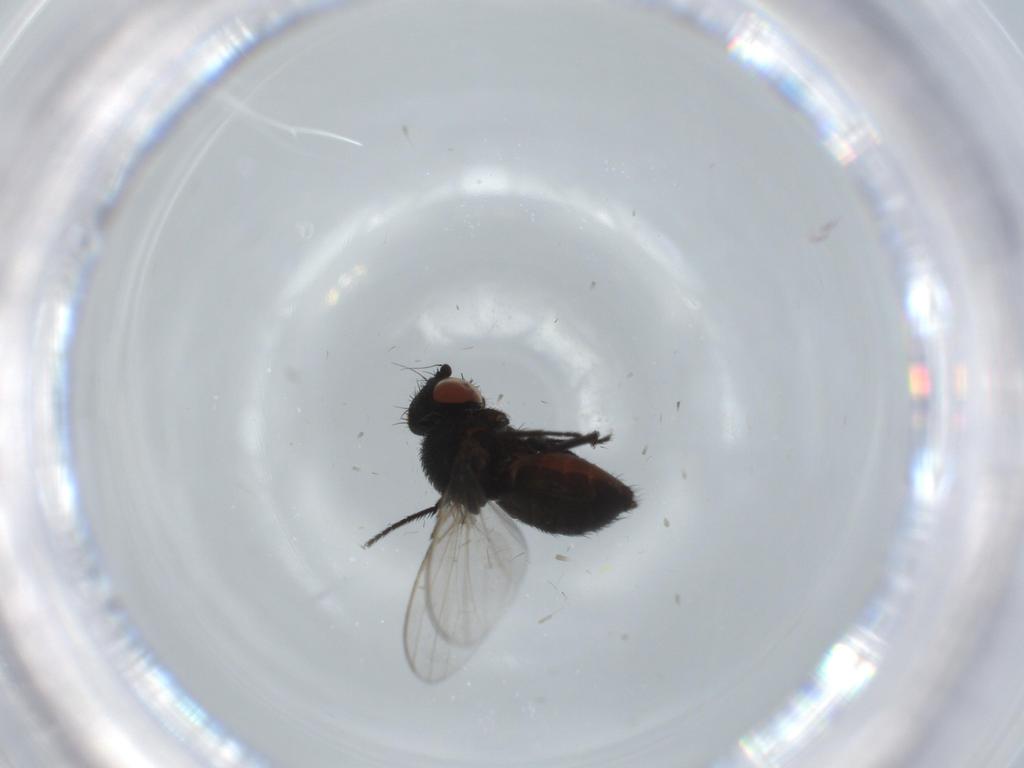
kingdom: Animalia
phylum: Arthropoda
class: Insecta
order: Diptera
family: Milichiidae
